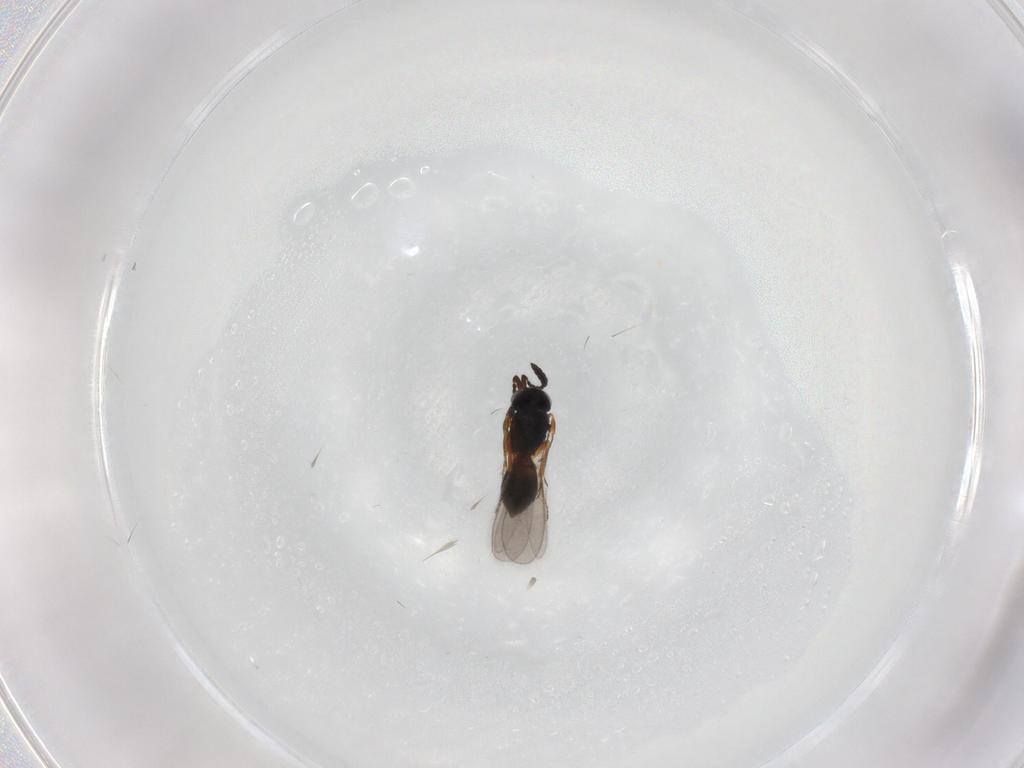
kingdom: Animalia
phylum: Arthropoda
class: Insecta
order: Hymenoptera
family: Scelionidae
